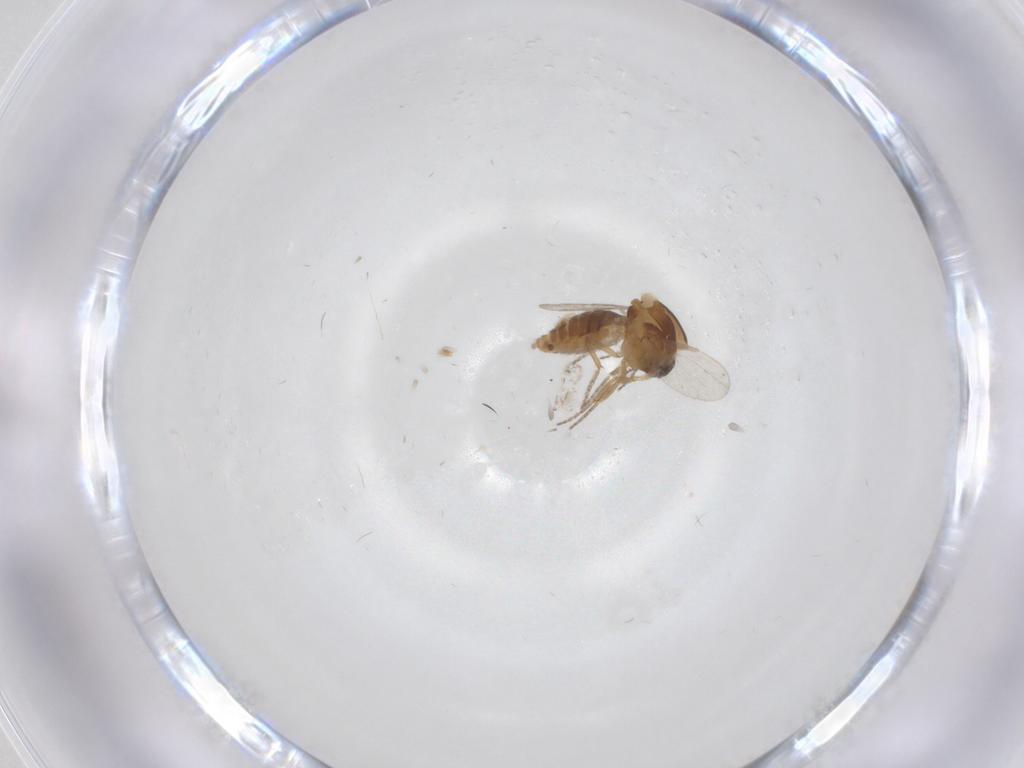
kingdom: Animalia
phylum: Arthropoda
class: Insecta
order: Diptera
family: Ceratopogonidae
